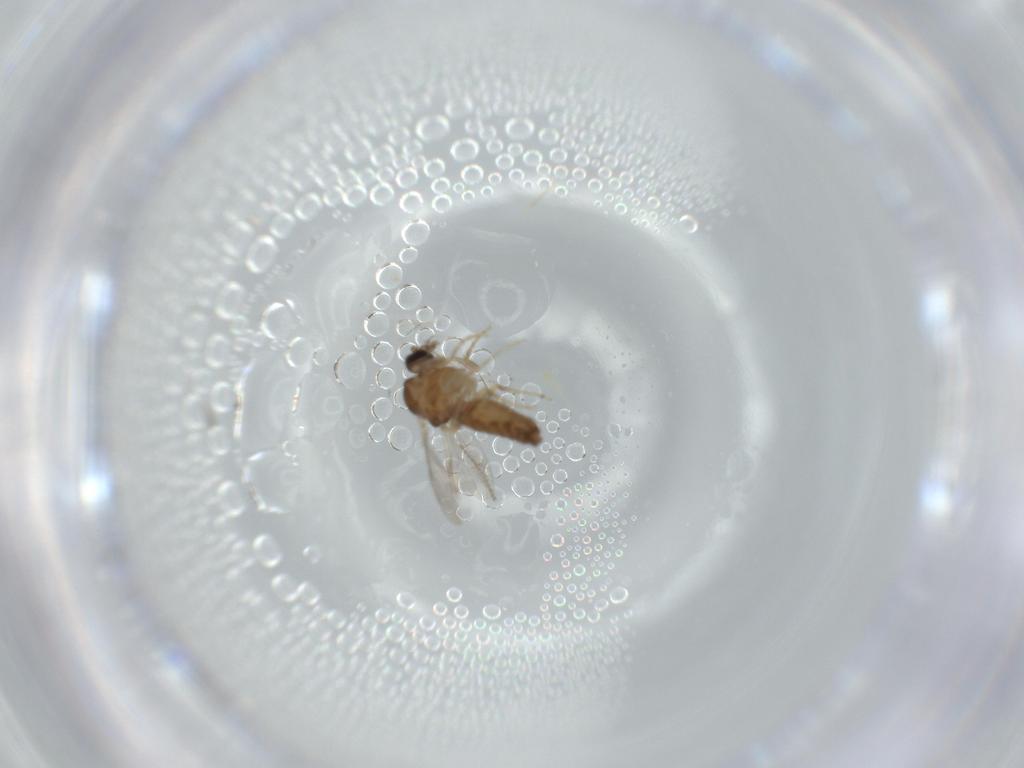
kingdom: Animalia
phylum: Arthropoda
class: Insecta
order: Diptera
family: Ceratopogonidae
